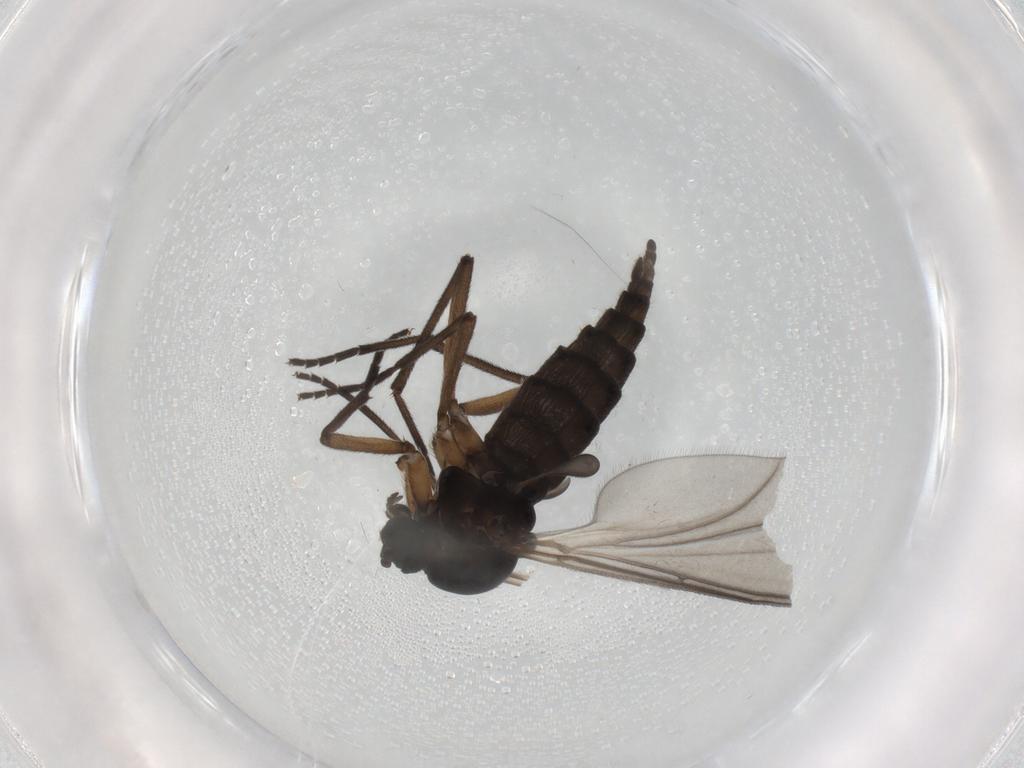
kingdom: Animalia
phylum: Arthropoda
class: Insecta
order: Diptera
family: Sciaridae
